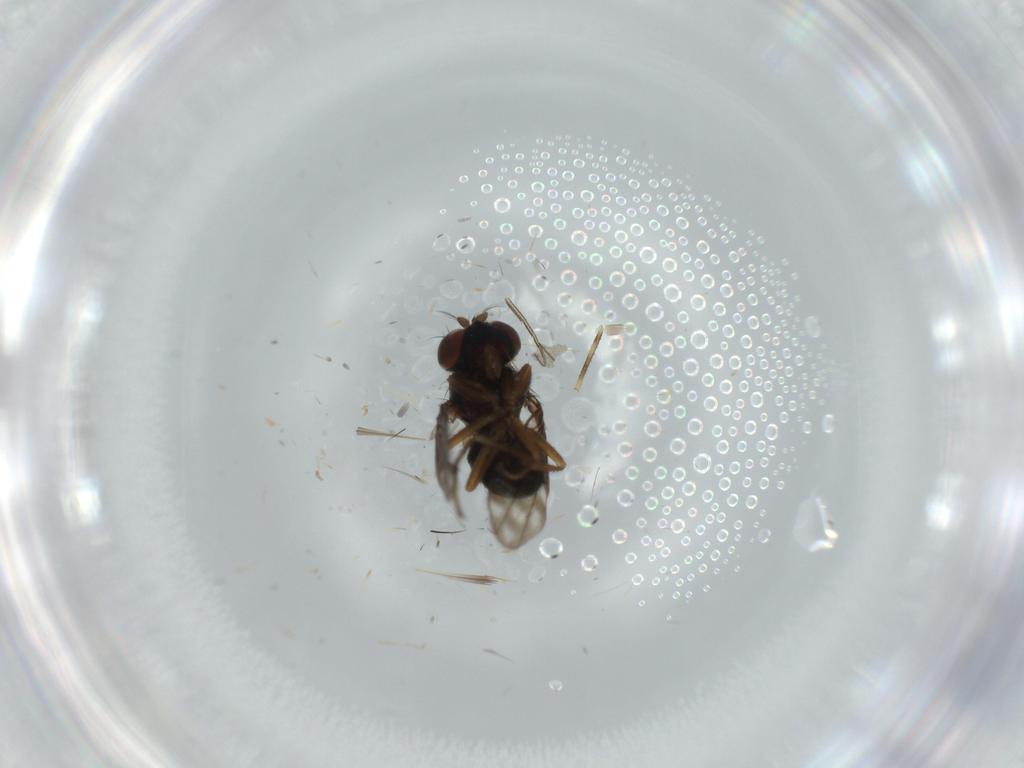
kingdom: Animalia
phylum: Arthropoda
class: Insecta
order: Diptera
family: Ephydridae
